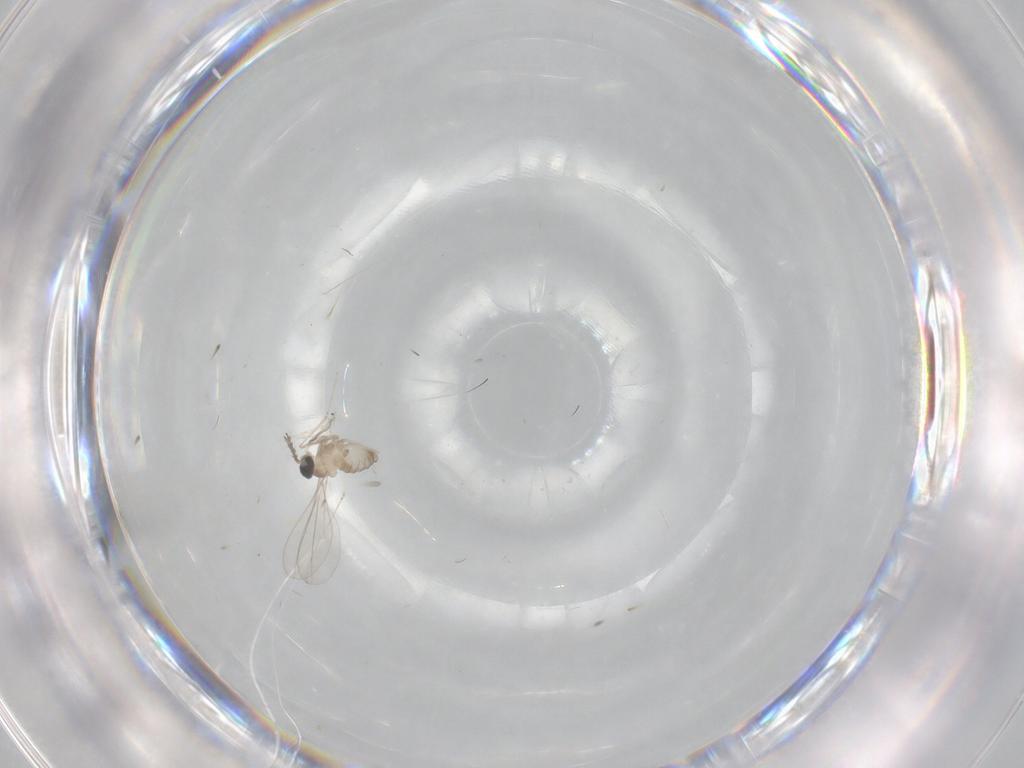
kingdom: Animalia
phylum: Arthropoda
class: Insecta
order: Diptera
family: Cecidomyiidae
